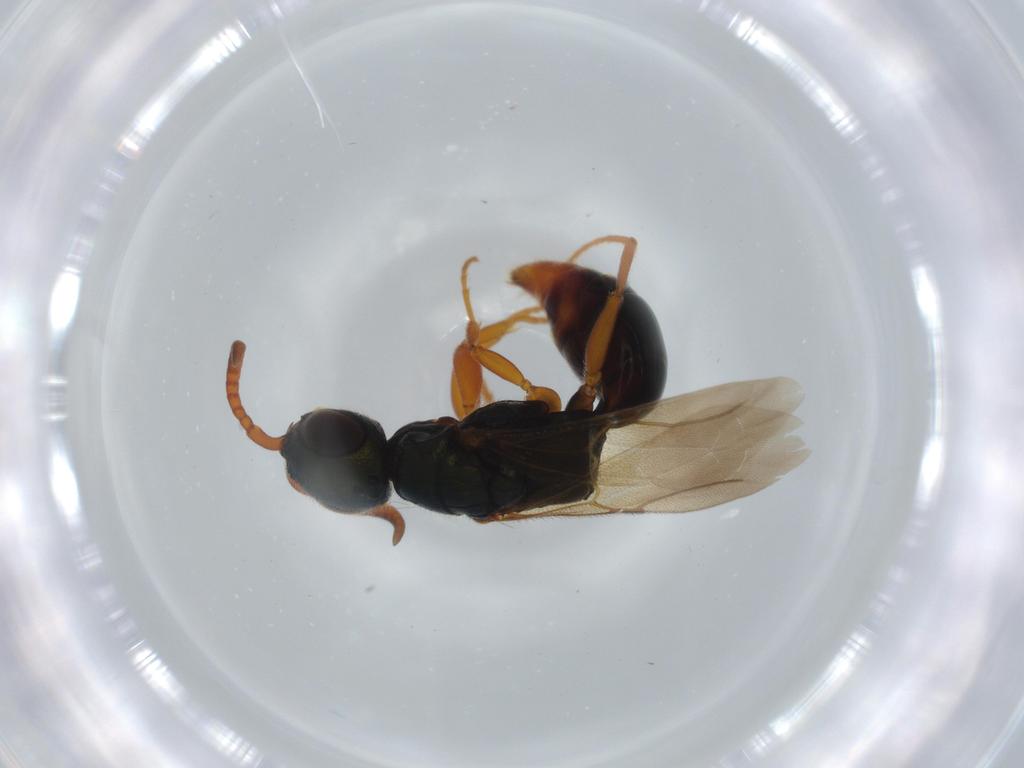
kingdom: Animalia
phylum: Arthropoda
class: Insecta
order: Hymenoptera
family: Bethylidae
